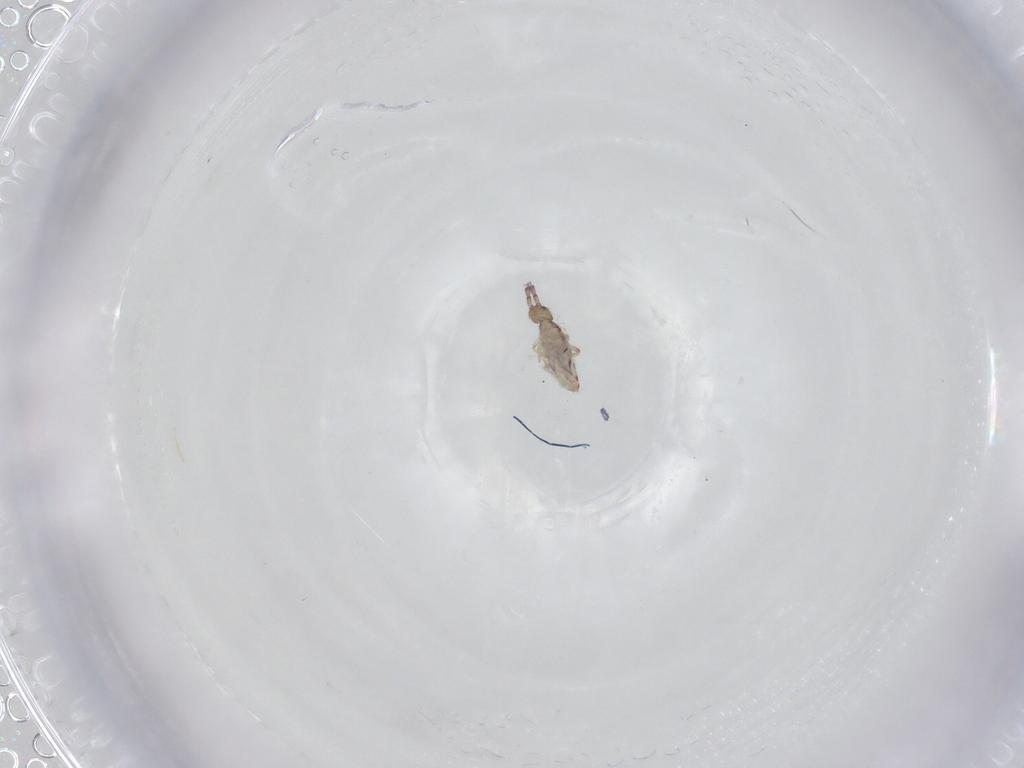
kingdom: Animalia
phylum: Arthropoda
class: Collembola
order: Entomobryomorpha
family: Entomobryidae
